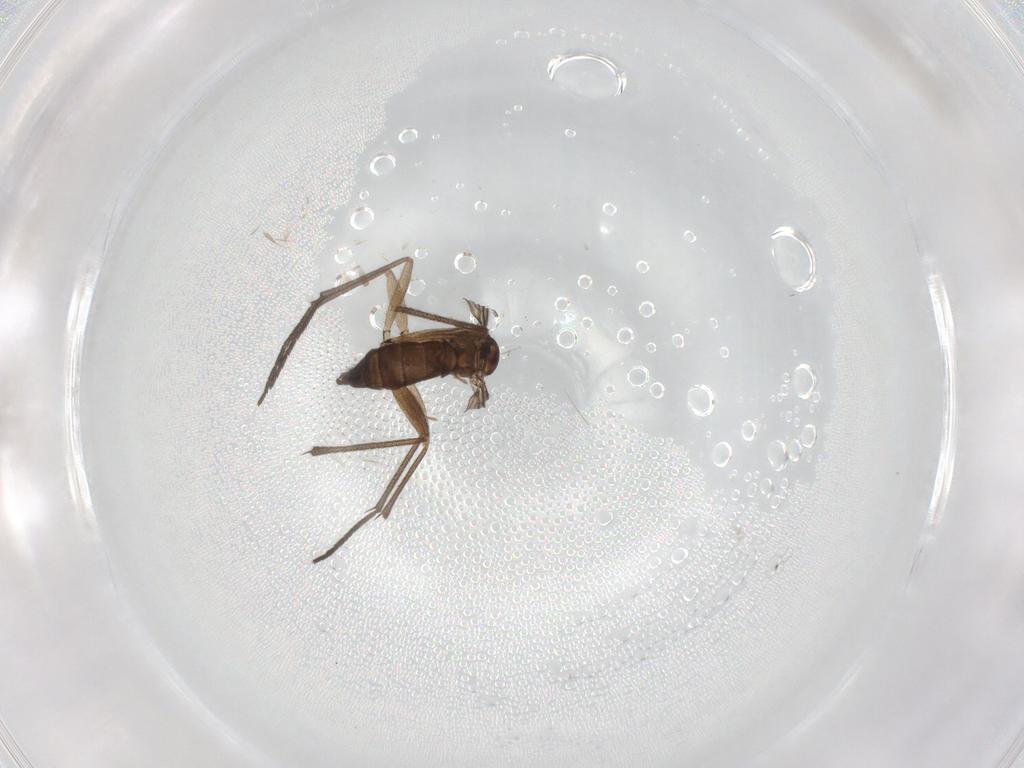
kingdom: Animalia
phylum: Arthropoda
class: Insecta
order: Diptera
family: Sciaridae
